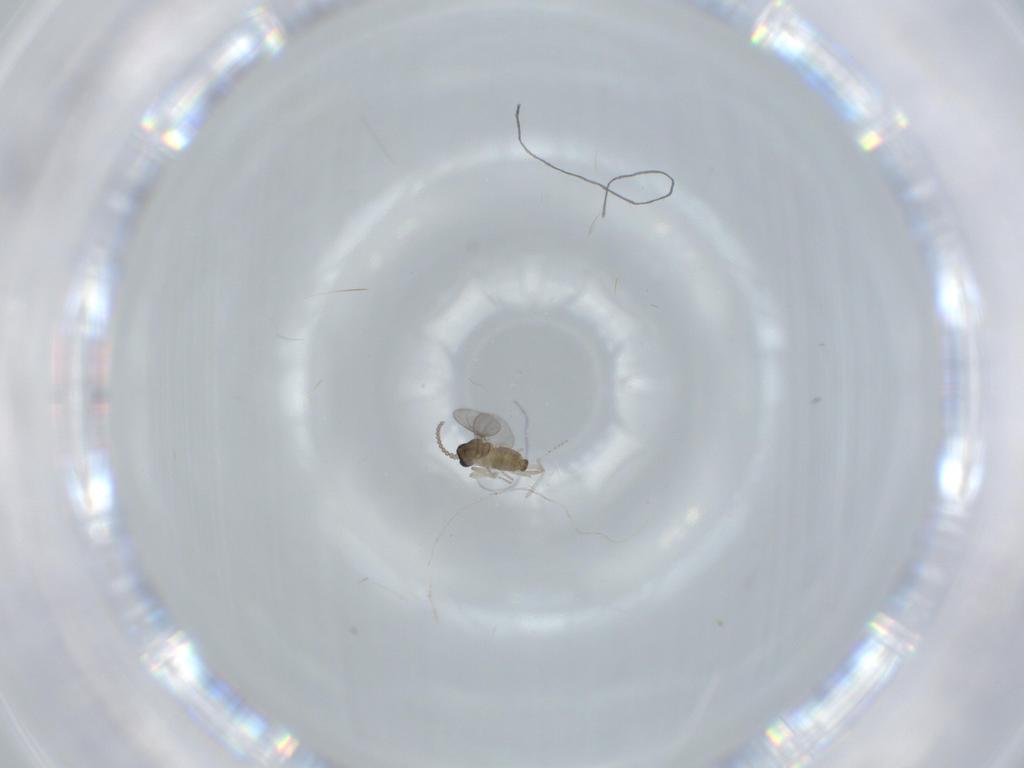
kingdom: Animalia
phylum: Arthropoda
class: Insecta
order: Diptera
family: Cecidomyiidae
